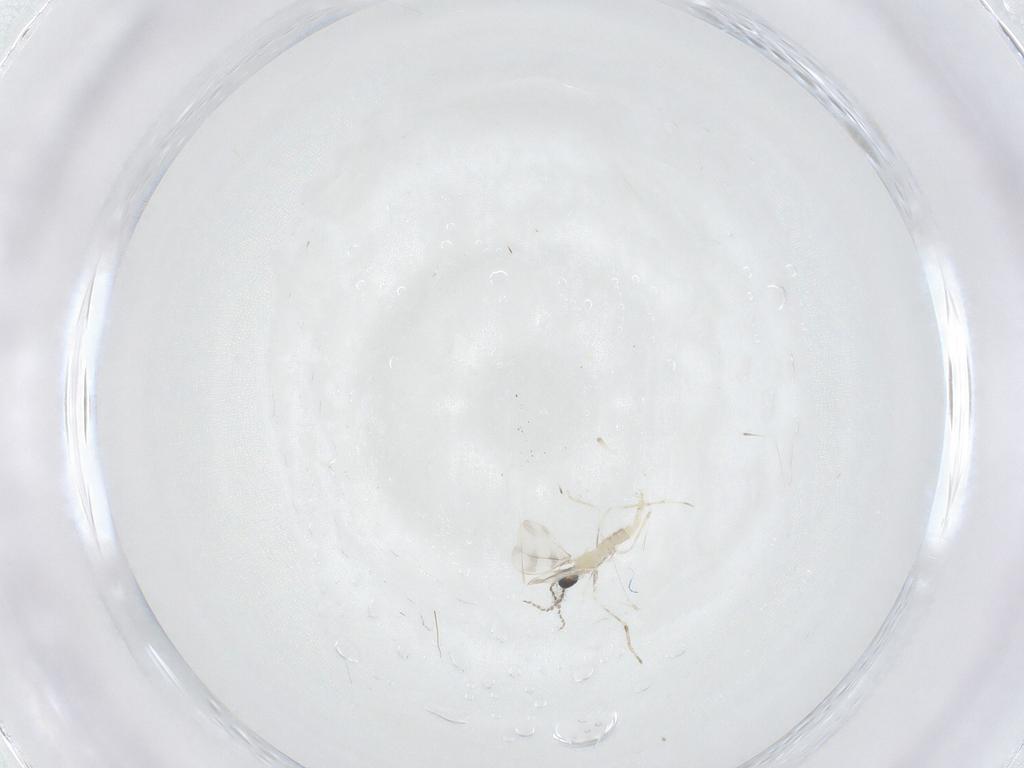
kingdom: Animalia
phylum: Arthropoda
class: Insecta
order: Diptera
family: Cecidomyiidae
